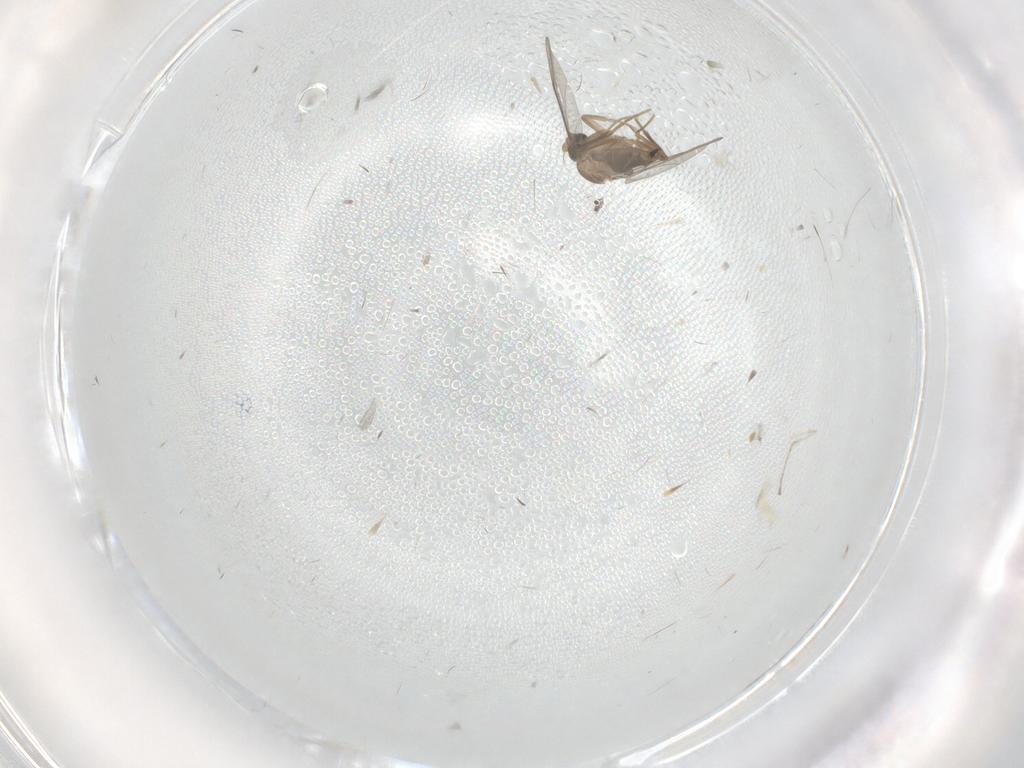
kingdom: Animalia
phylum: Arthropoda
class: Insecta
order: Diptera
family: Cecidomyiidae
